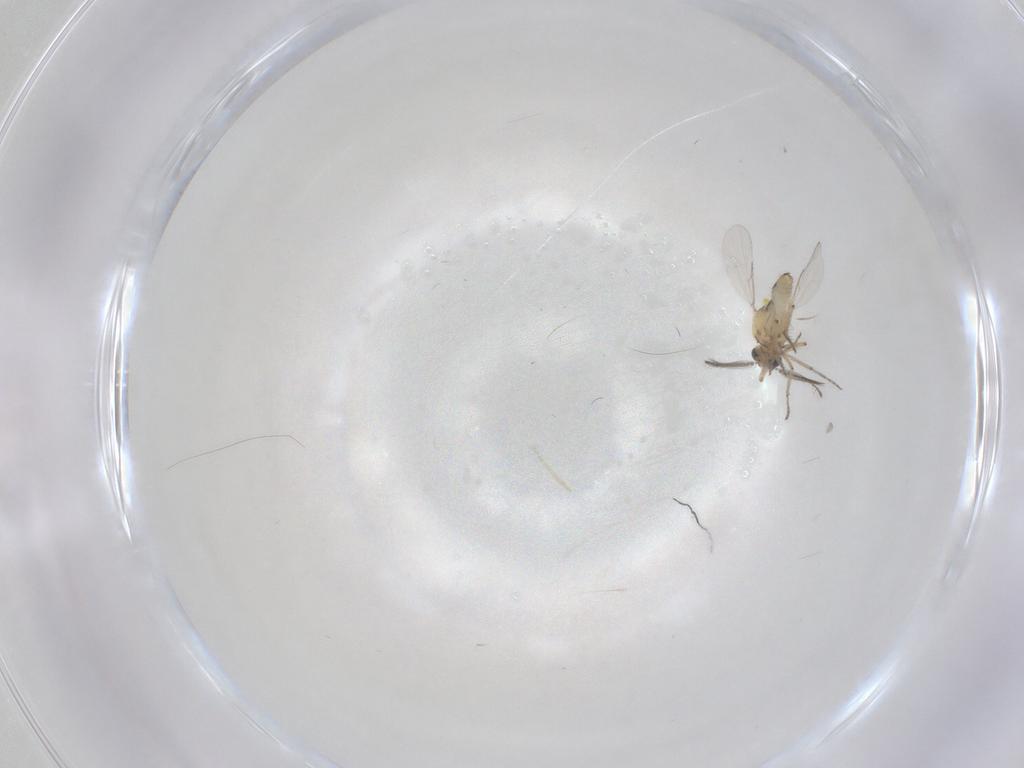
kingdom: Animalia
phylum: Arthropoda
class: Insecta
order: Diptera
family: Ceratopogonidae
